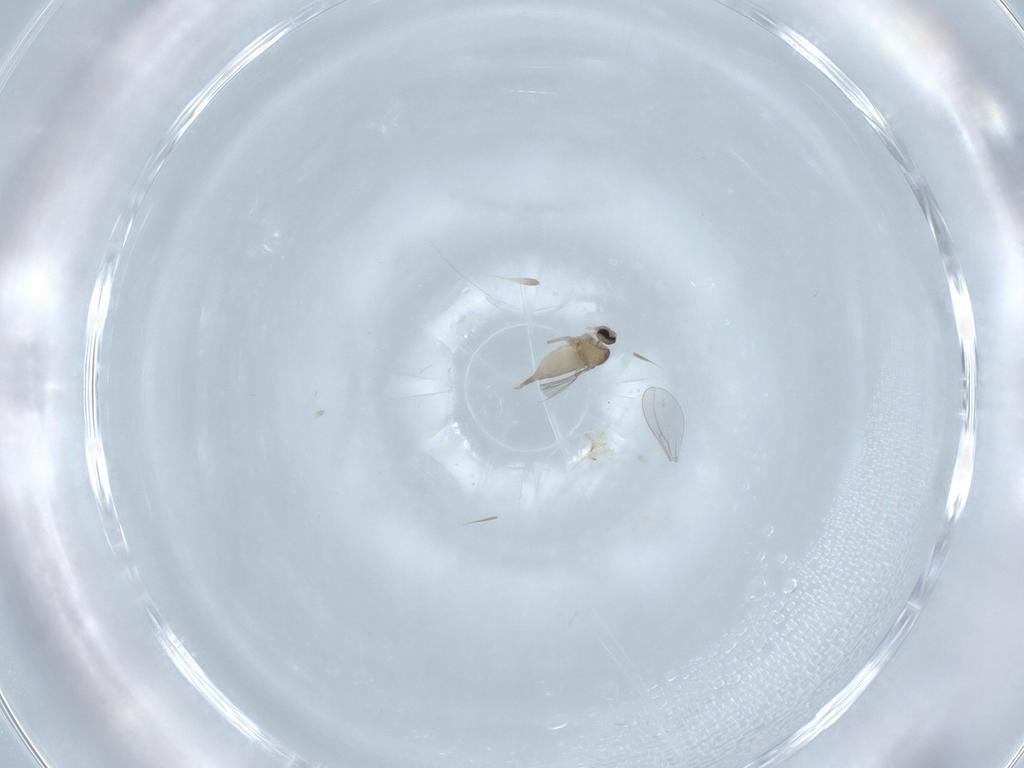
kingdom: Animalia
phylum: Arthropoda
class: Insecta
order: Diptera
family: Cecidomyiidae
